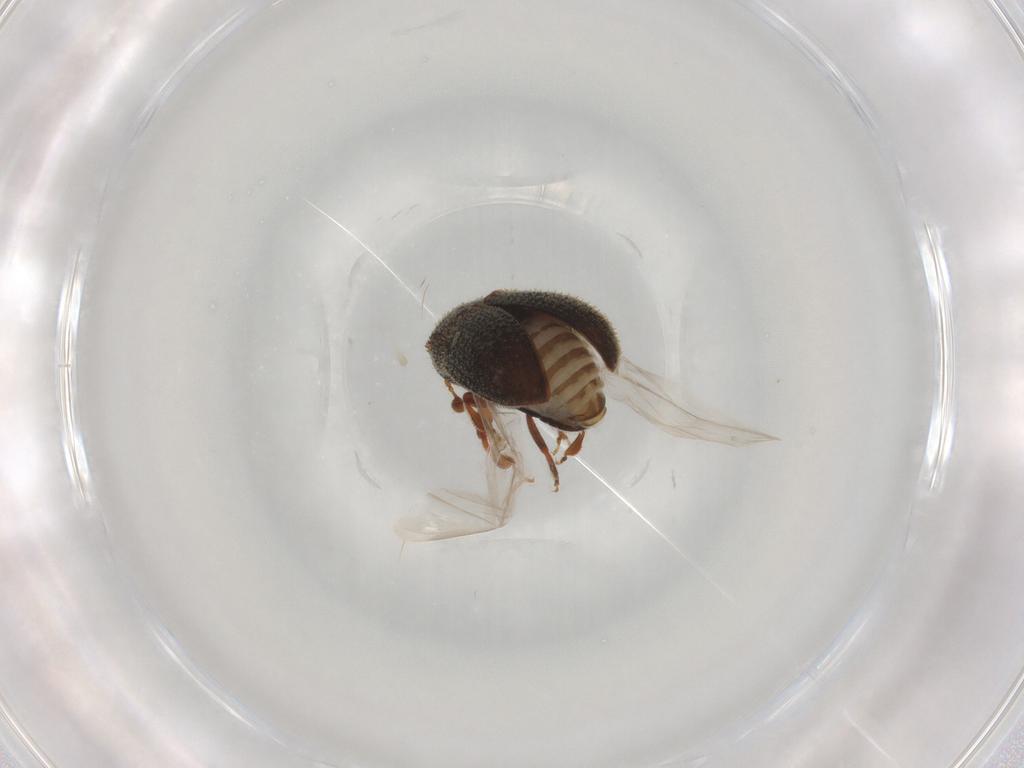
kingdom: Animalia
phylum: Arthropoda
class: Insecta
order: Coleoptera
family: Curculionidae
